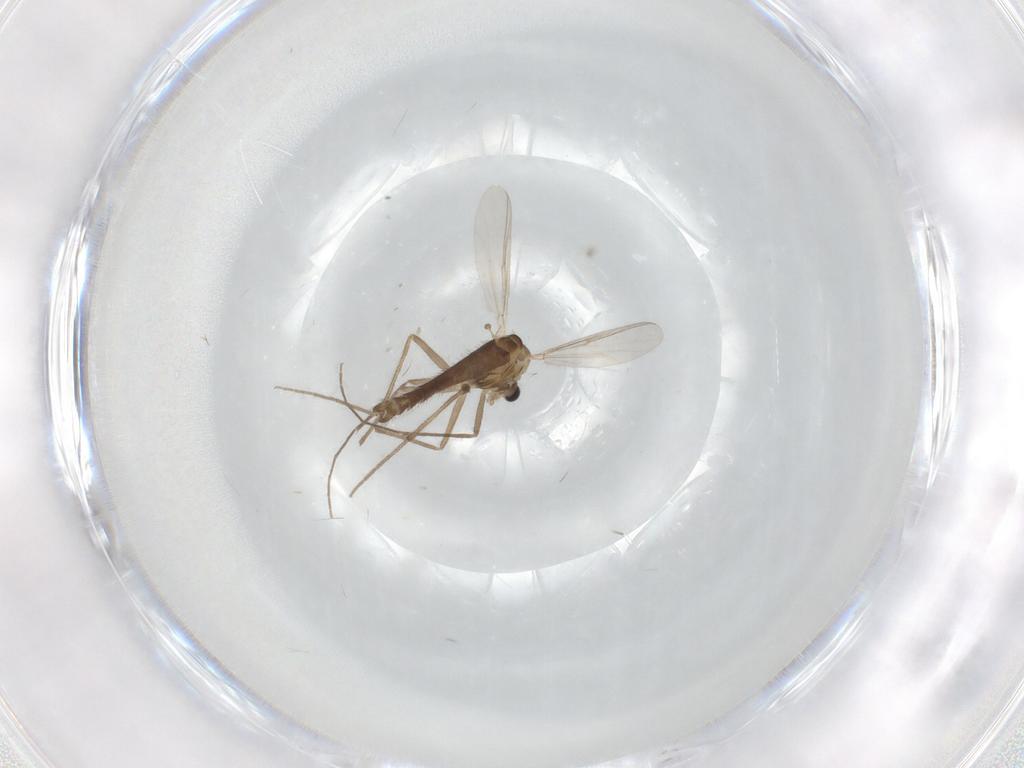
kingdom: Animalia
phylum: Arthropoda
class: Insecta
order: Diptera
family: Chironomidae
